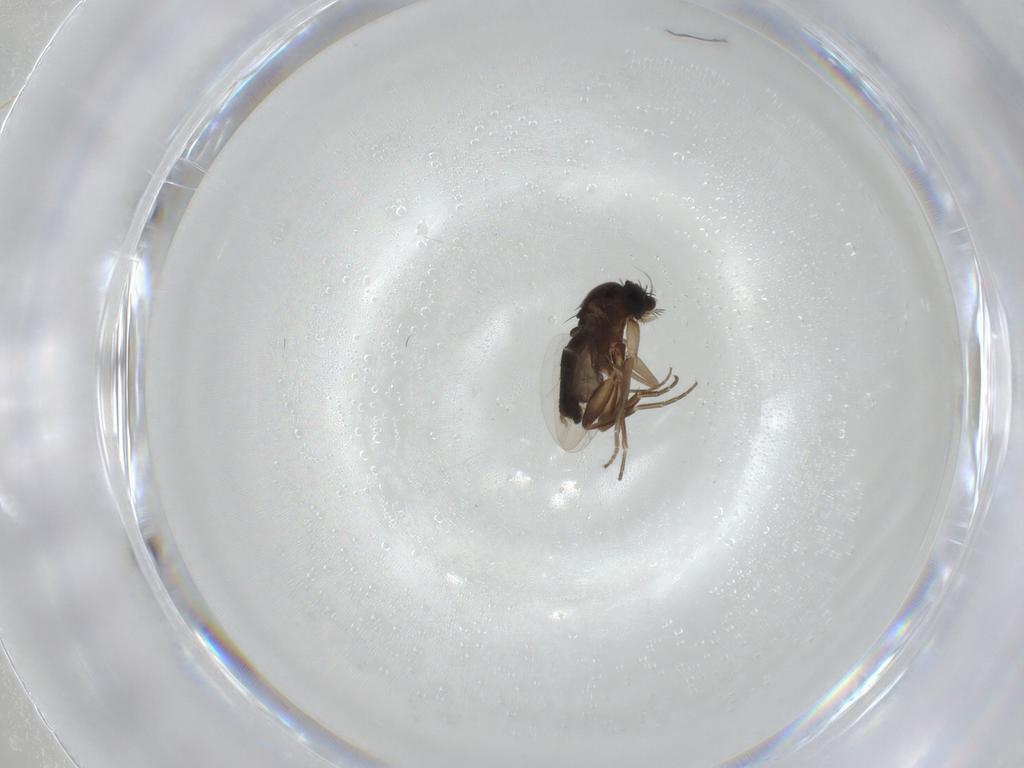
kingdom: Animalia
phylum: Arthropoda
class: Insecta
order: Diptera
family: Phoridae
